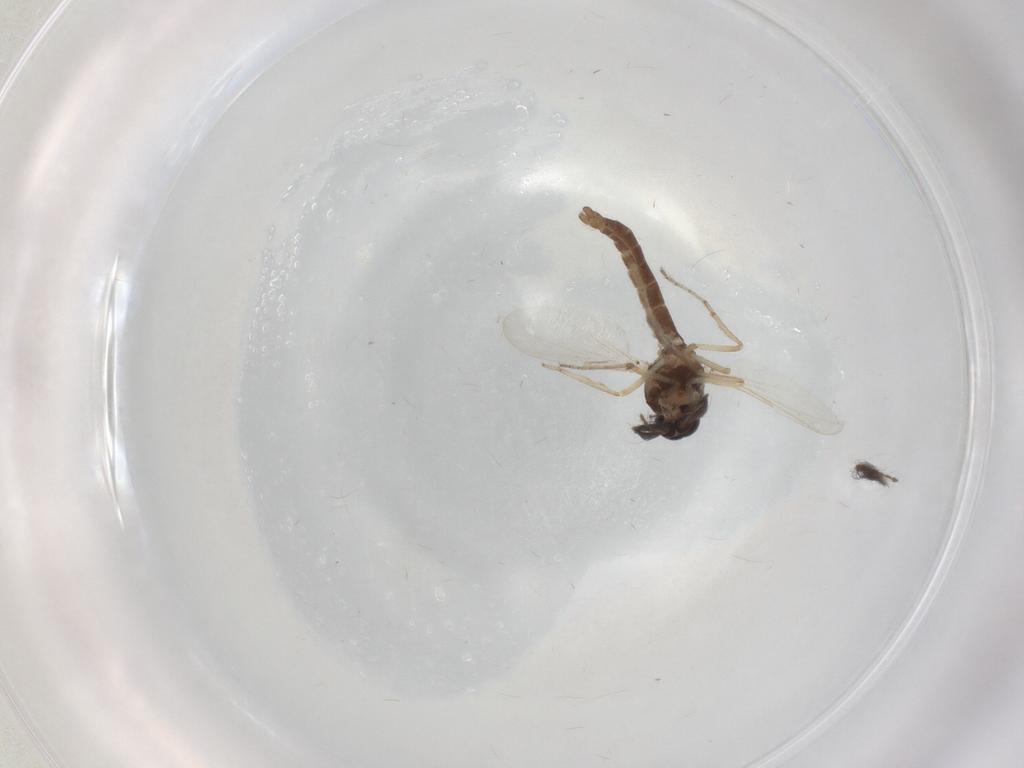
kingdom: Animalia
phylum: Arthropoda
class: Insecta
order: Diptera
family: Ceratopogonidae
